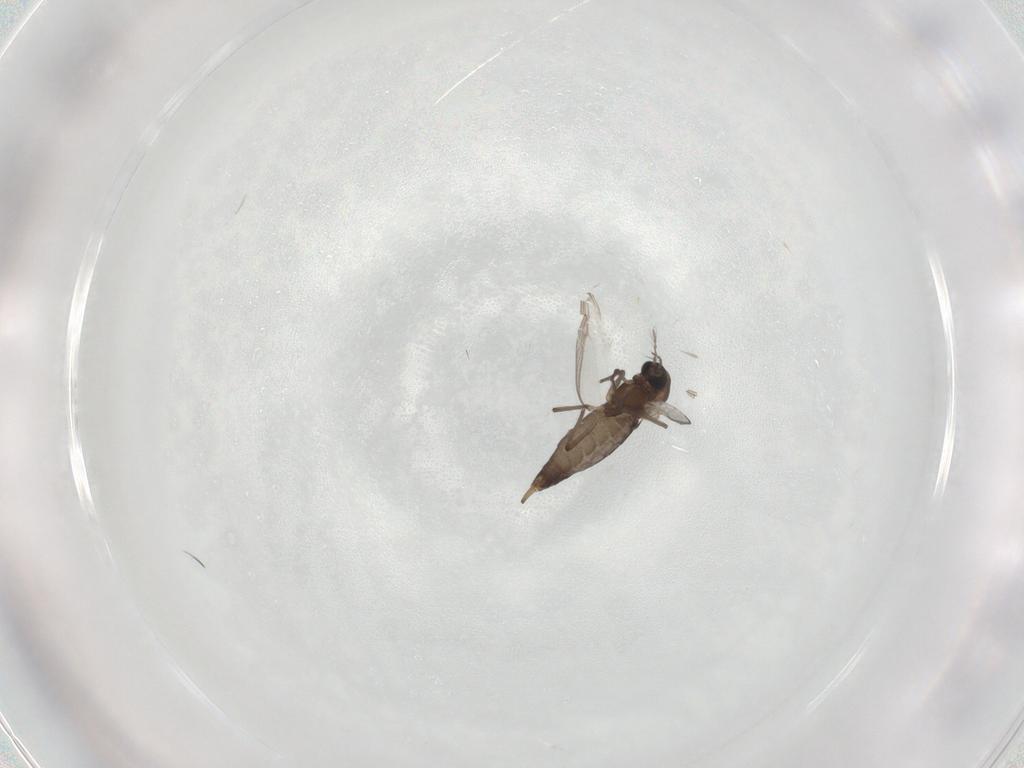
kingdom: Animalia
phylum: Arthropoda
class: Insecta
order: Diptera
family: Chironomidae
